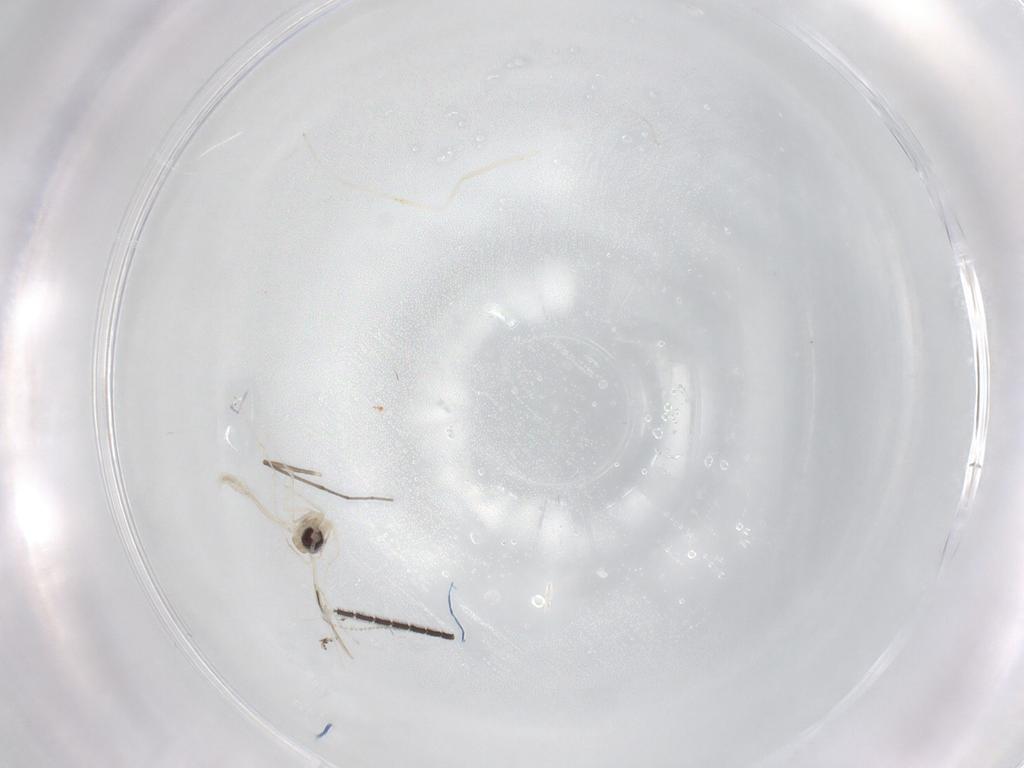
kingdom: Animalia
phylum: Arthropoda
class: Insecta
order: Diptera
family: Cecidomyiidae
